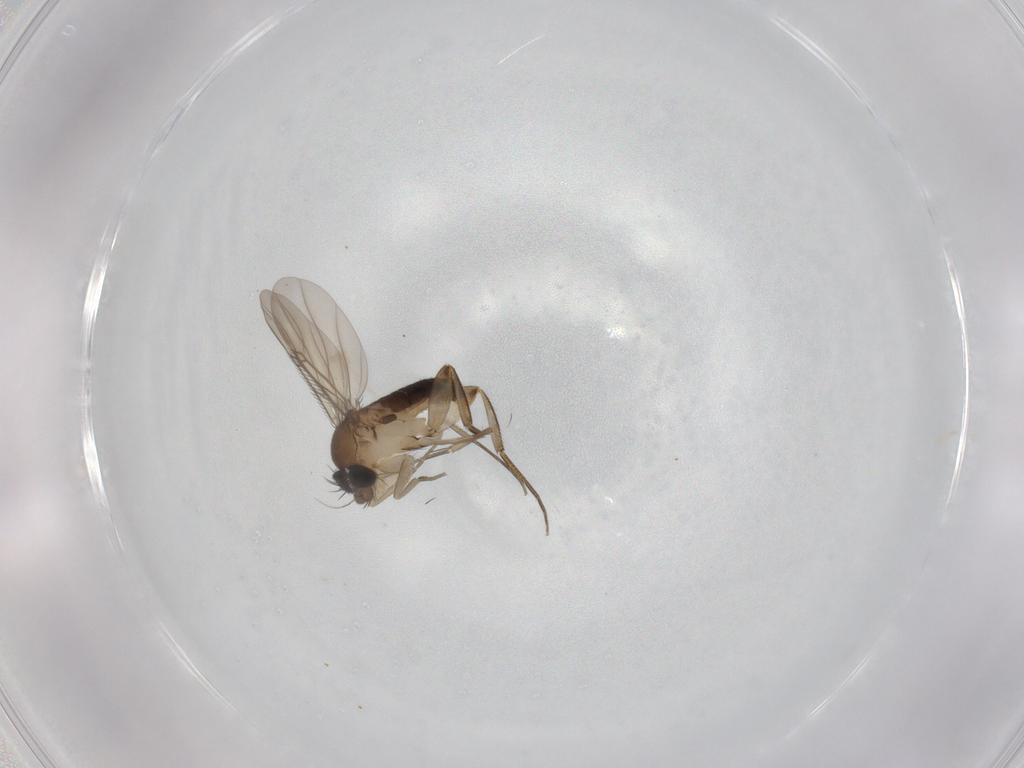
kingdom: Animalia
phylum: Arthropoda
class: Insecta
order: Diptera
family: Phoridae
